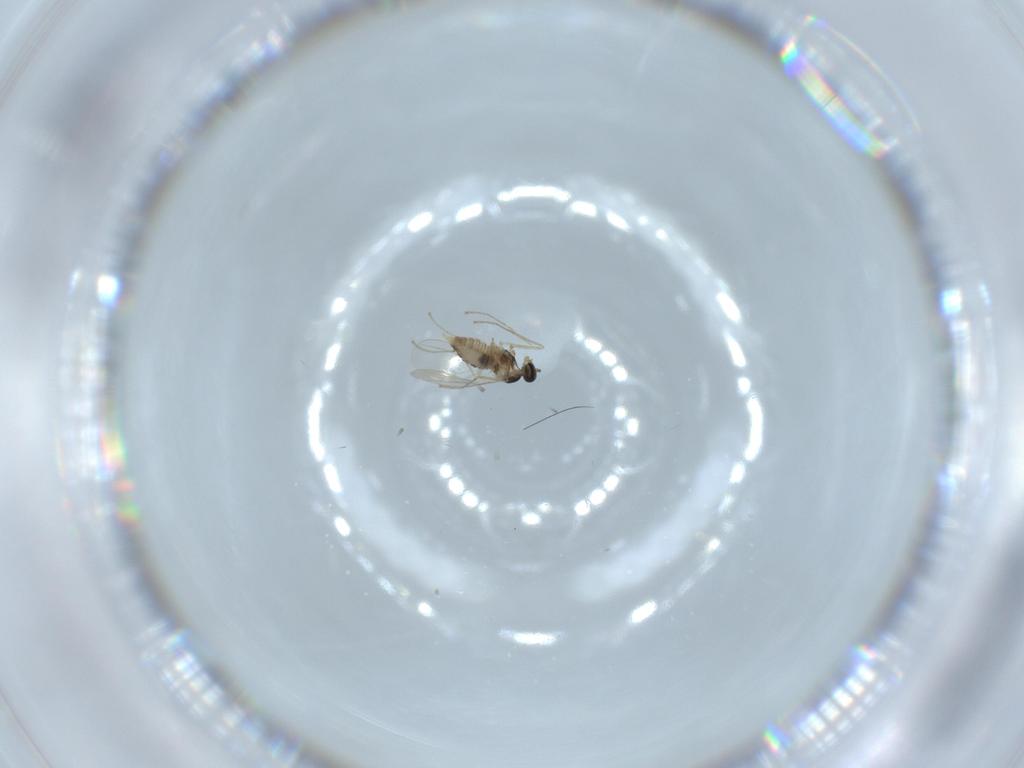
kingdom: Animalia
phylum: Arthropoda
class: Insecta
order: Diptera
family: Cecidomyiidae
